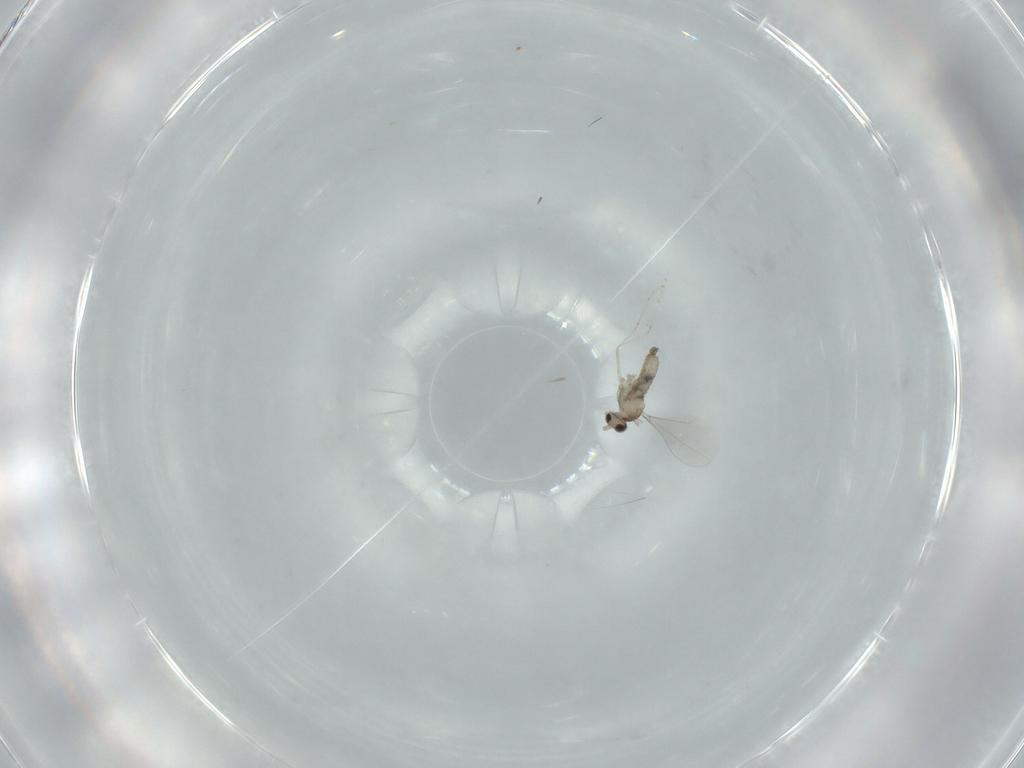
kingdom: Animalia
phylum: Arthropoda
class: Insecta
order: Diptera
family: Cecidomyiidae
